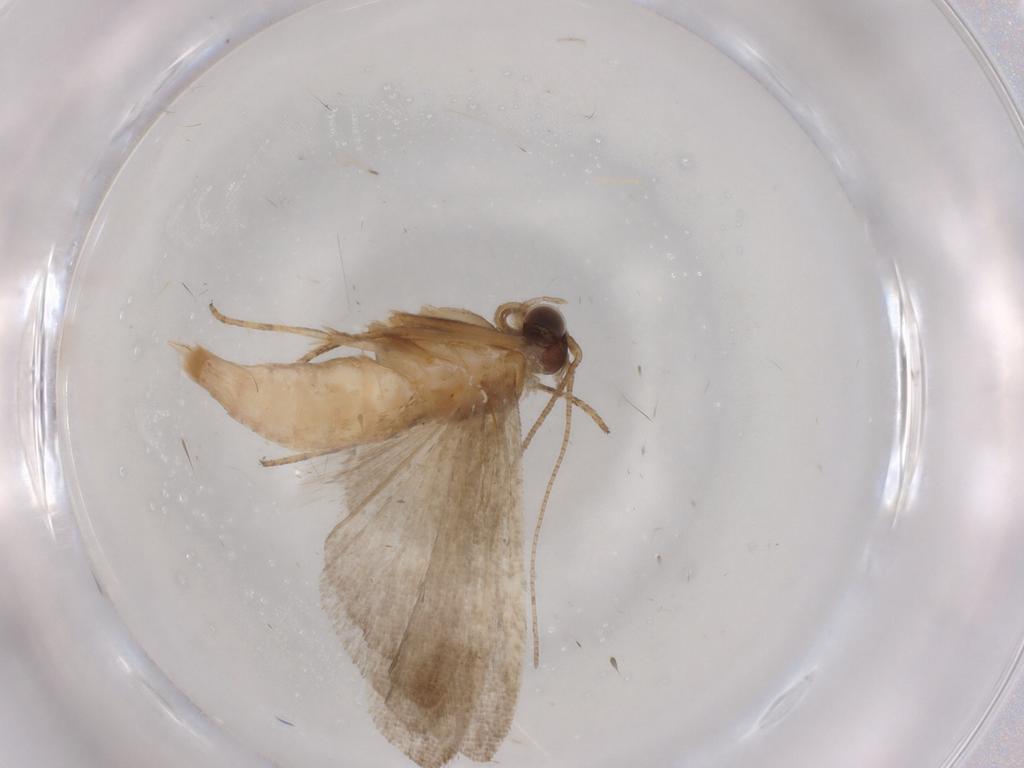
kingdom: Animalia
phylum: Arthropoda
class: Insecta
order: Lepidoptera
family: Noctuidae
